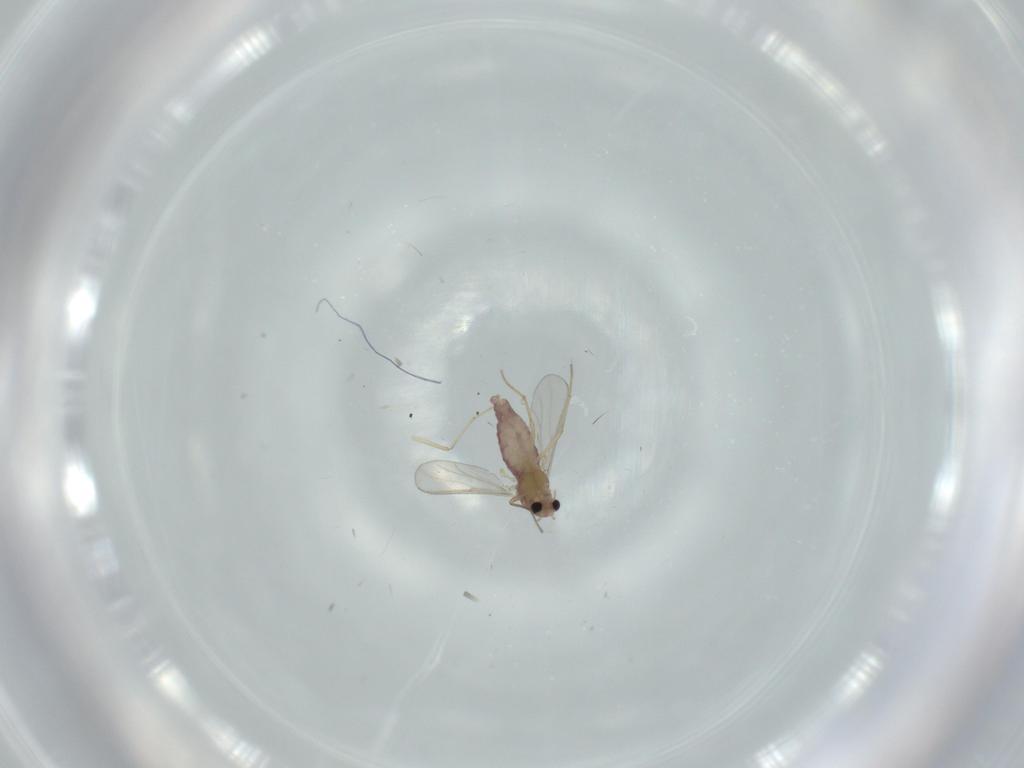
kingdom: Animalia
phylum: Arthropoda
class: Insecta
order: Diptera
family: Chironomidae
